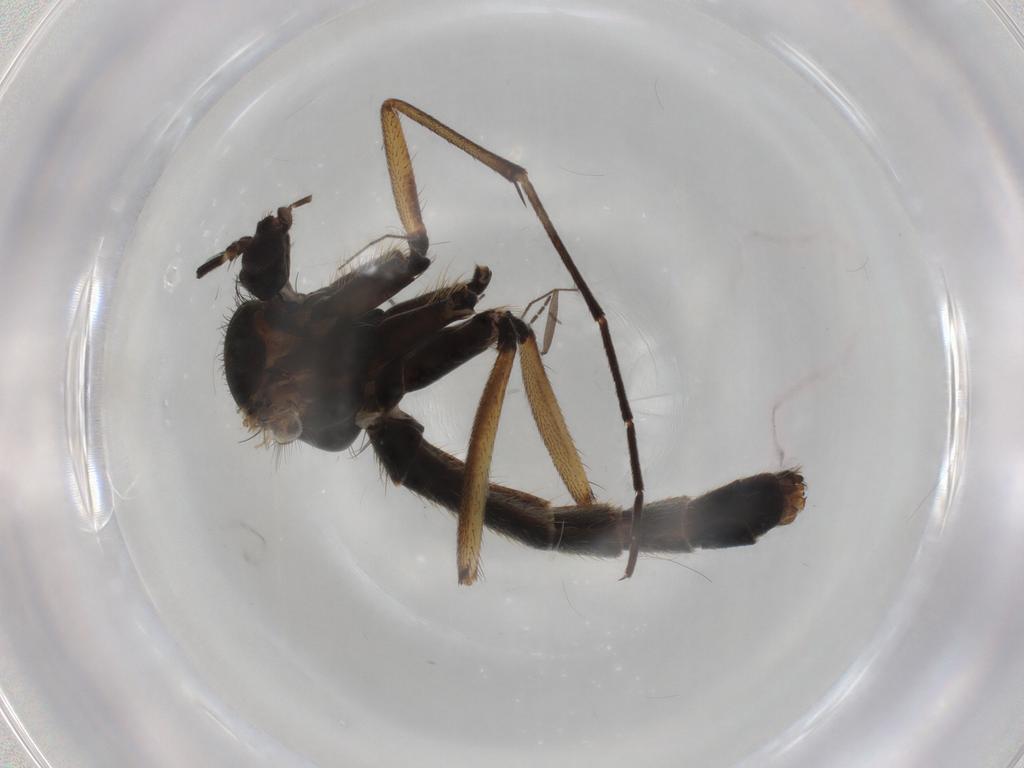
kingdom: Animalia
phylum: Arthropoda
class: Insecta
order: Diptera
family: Mycetophilidae
